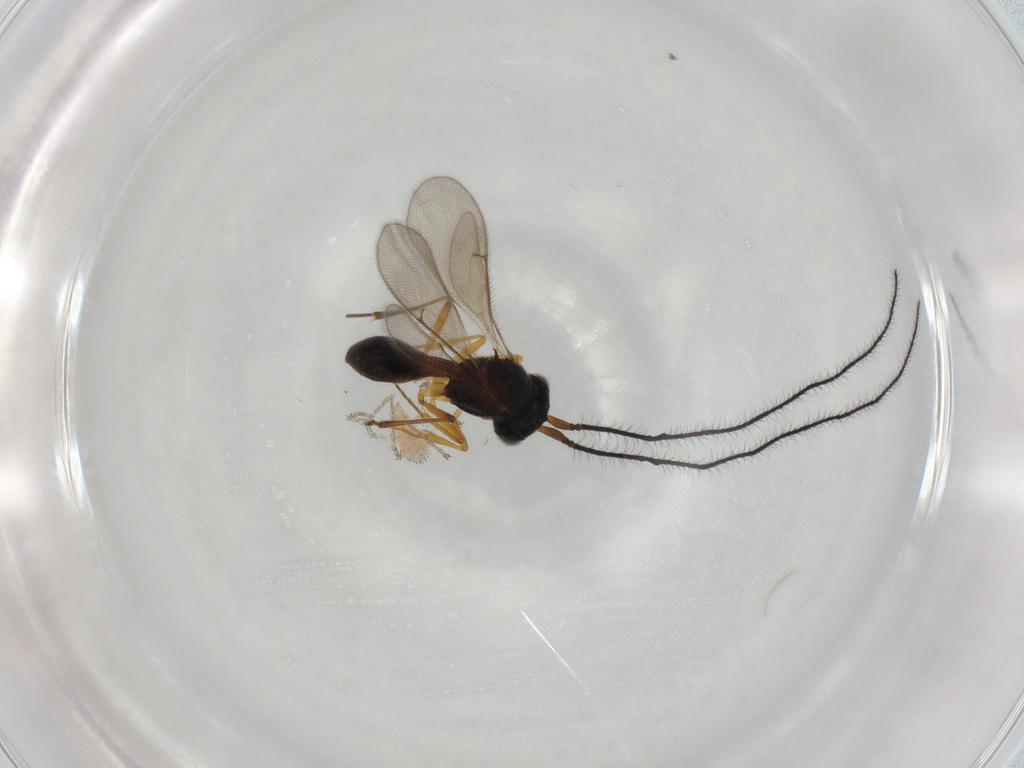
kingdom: Animalia
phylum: Arthropoda
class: Insecta
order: Hymenoptera
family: Scelionidae
